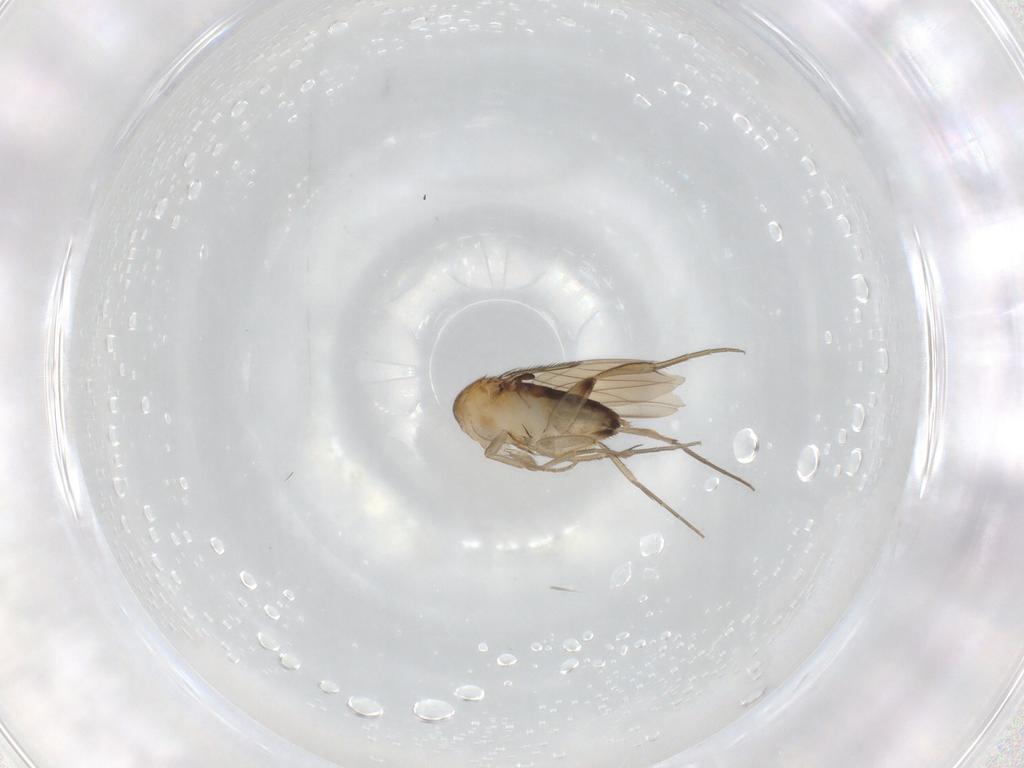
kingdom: Animalia
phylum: Arthropoda
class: Insecta
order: Diptera
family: Phoridae
